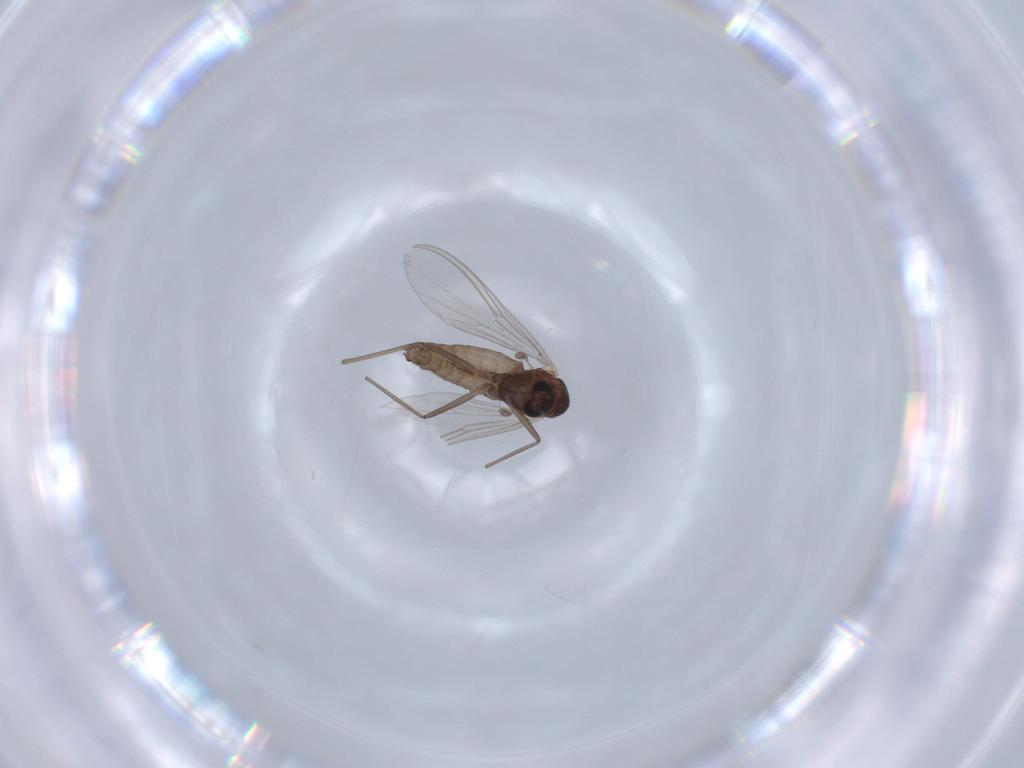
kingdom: Animalia
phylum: Arthropoda
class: Insecta
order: Diptera
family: Chironomidae
